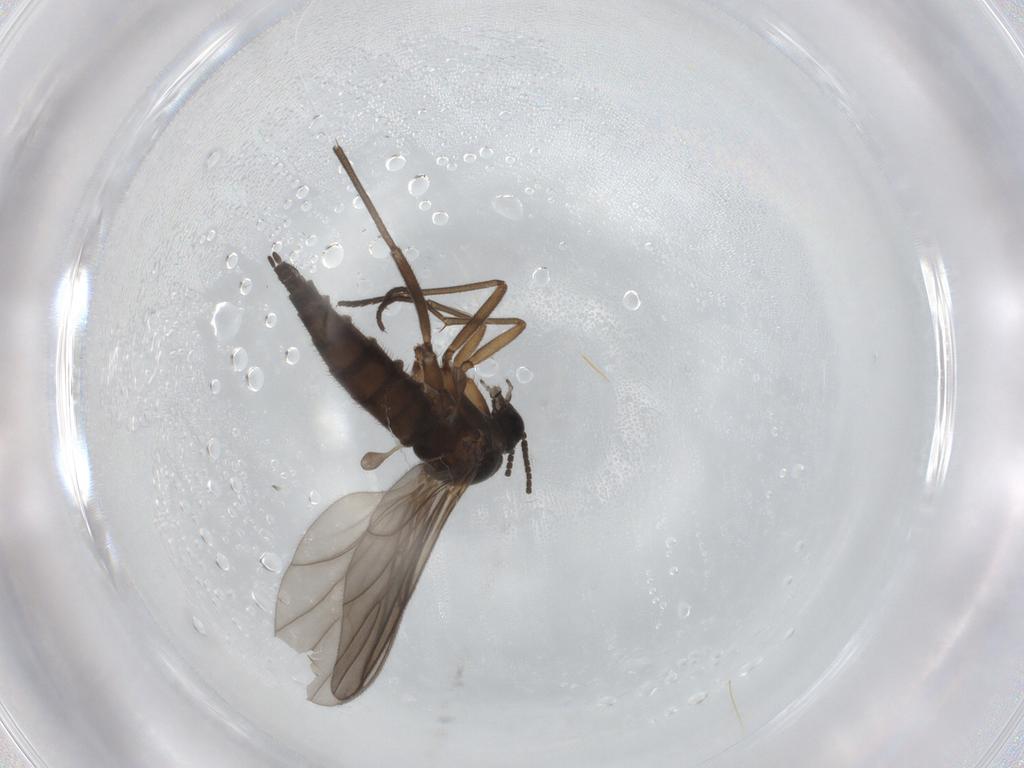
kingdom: Animalia
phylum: Arthropoda
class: Insecta
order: Diptera
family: Sciaridae
